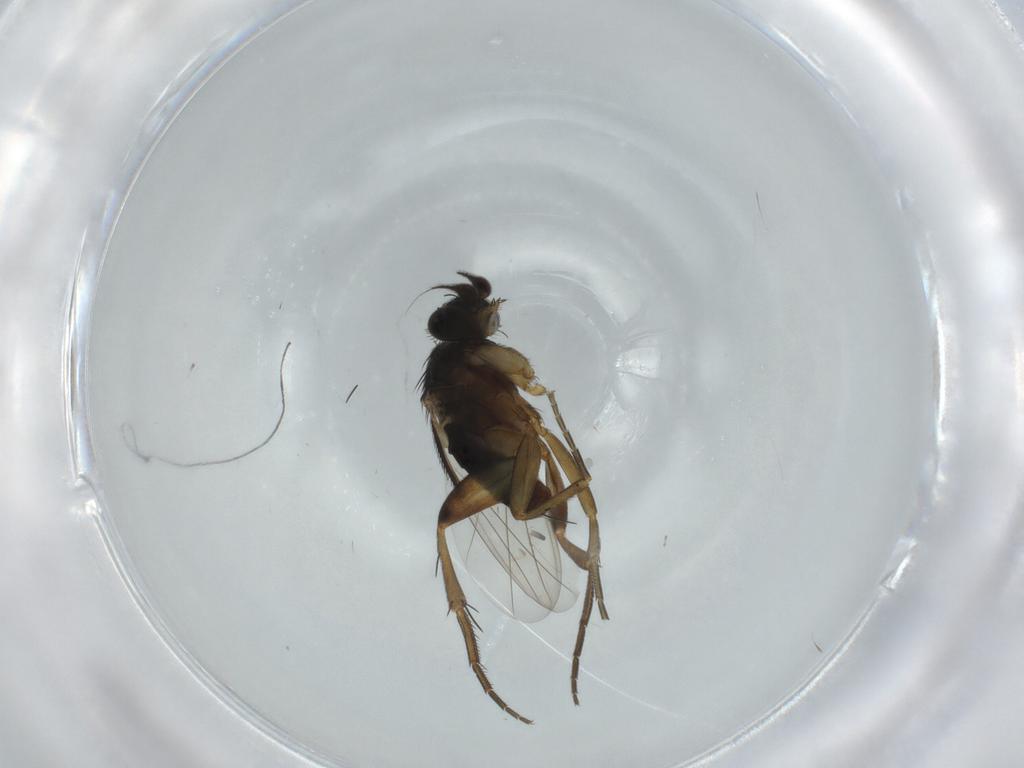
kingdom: Animalia
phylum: Arthropoda
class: Insecta
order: Diptera
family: Phoridae
